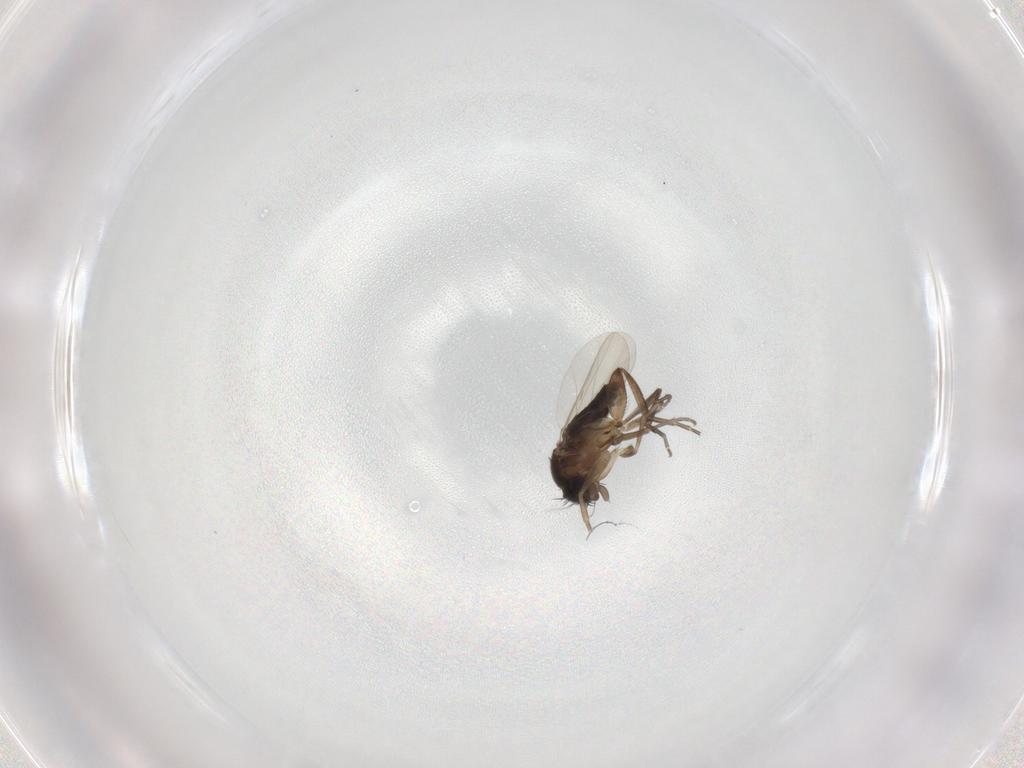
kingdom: Animalia
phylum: Arthropoda
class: Insecta
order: Diptera
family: Phoridae
